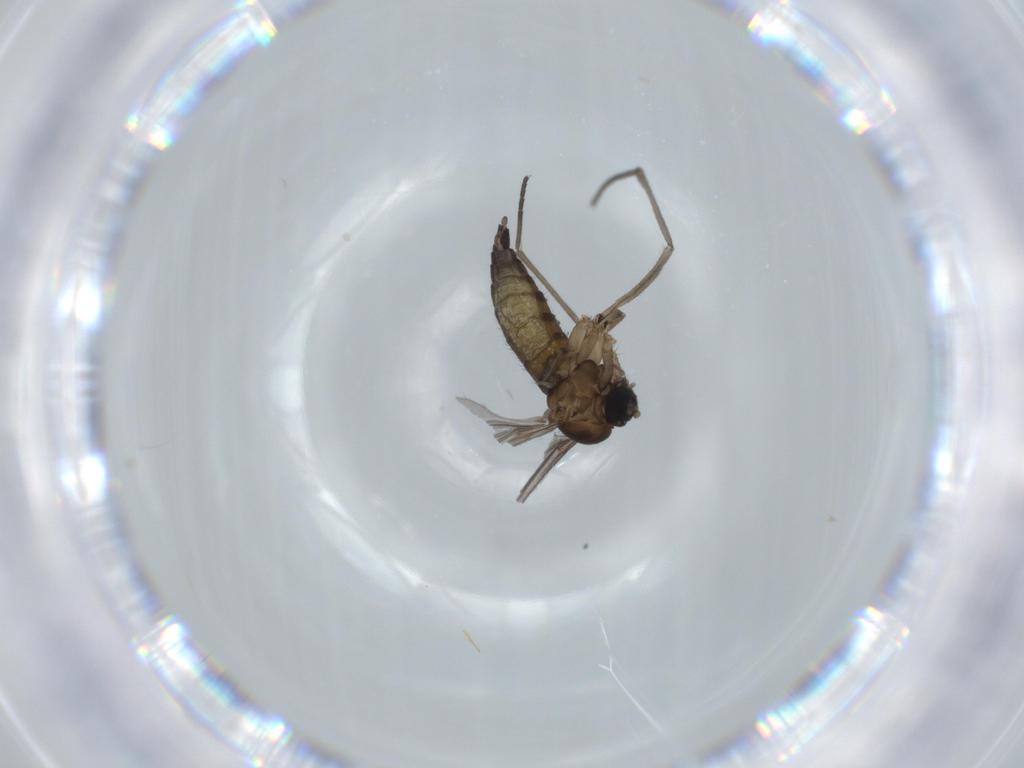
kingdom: Animalia
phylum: Arthropoda
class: Insecta
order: Diptera
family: Sciaridae
